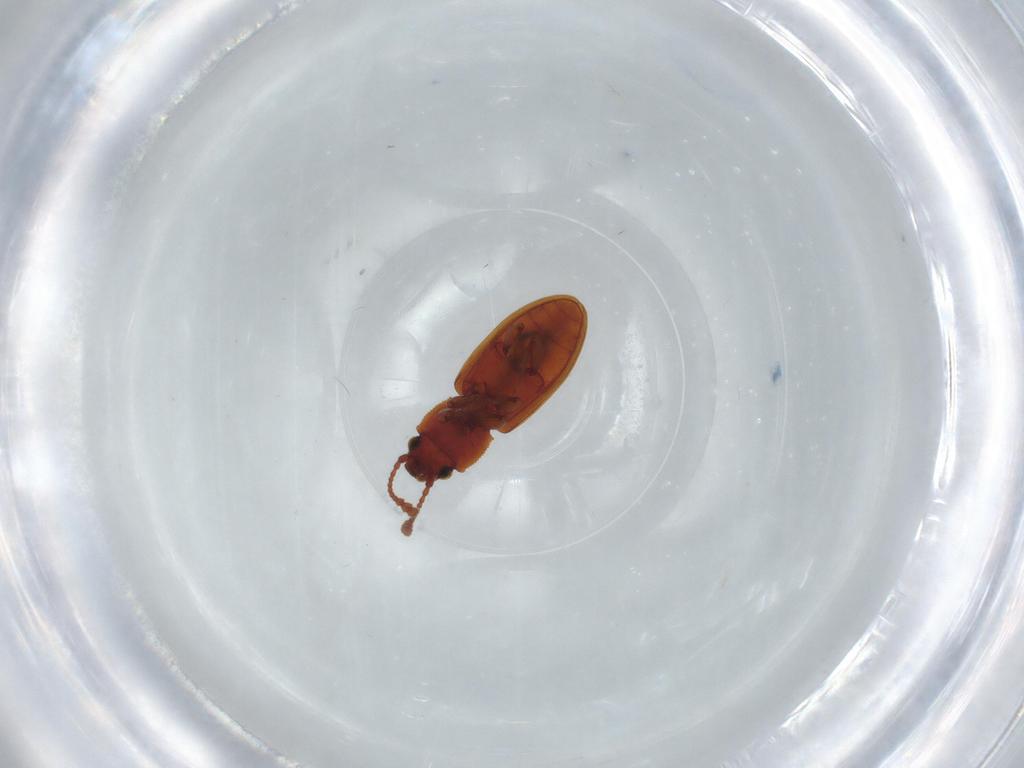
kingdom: Animalia
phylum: Arthropoda
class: Insecta
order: Coleoptera
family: Silvanidae
